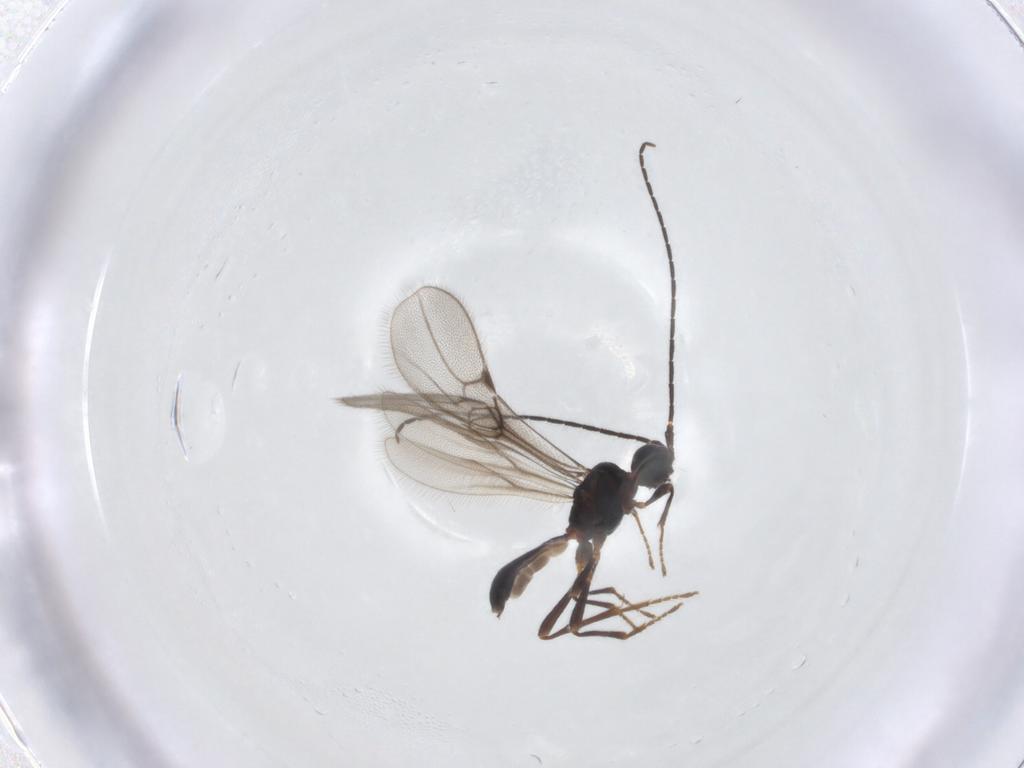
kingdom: Animalia
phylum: Arthropoda
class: Insecta
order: Hymenoptera
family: Braconidae
